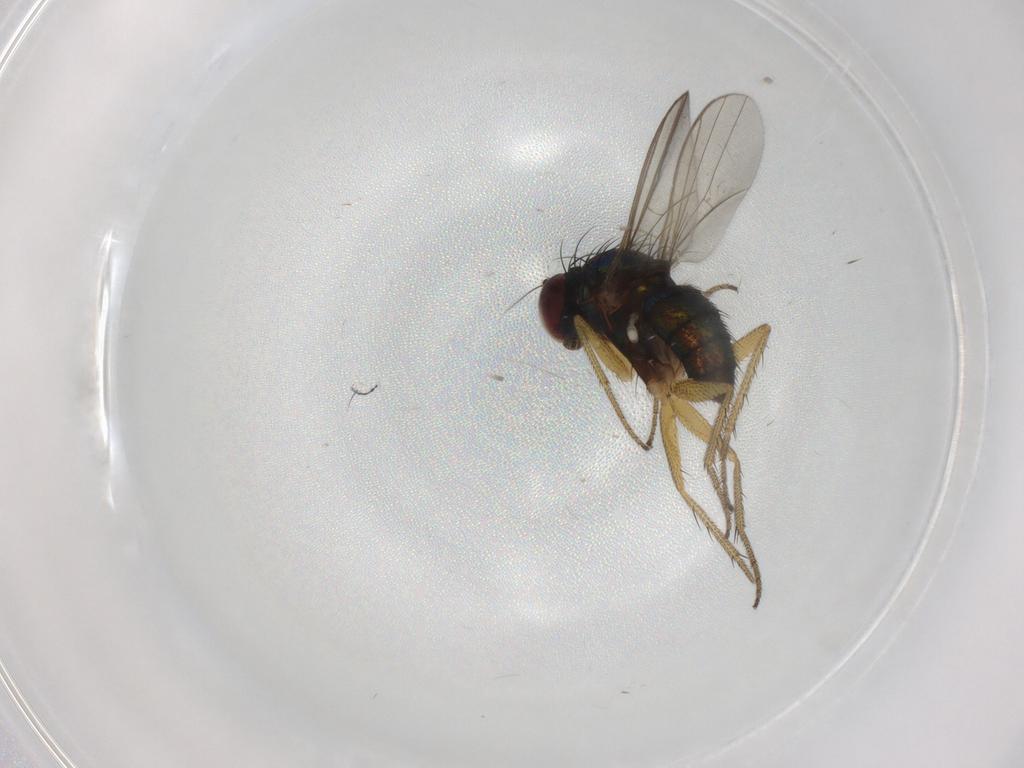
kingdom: Animalia
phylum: Arthropoda
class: Insecta
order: Diptera
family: Dolichopodidae
